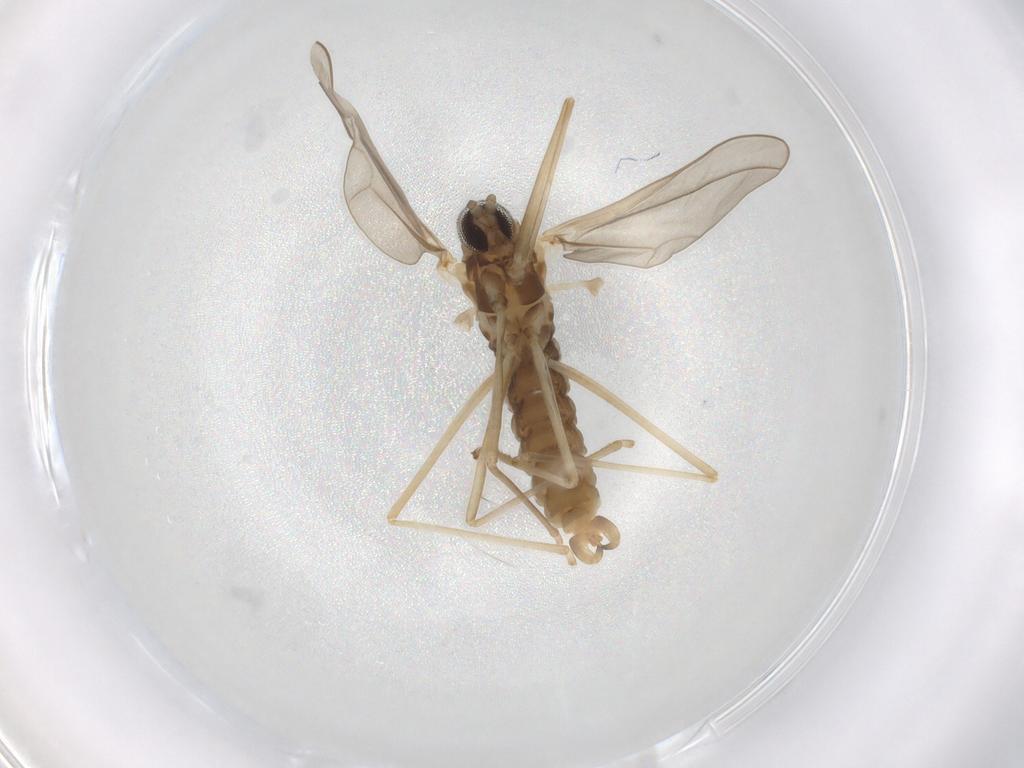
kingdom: Animalia
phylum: Arthropoda
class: Insecta
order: Diptera
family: Cecidomyiidae
